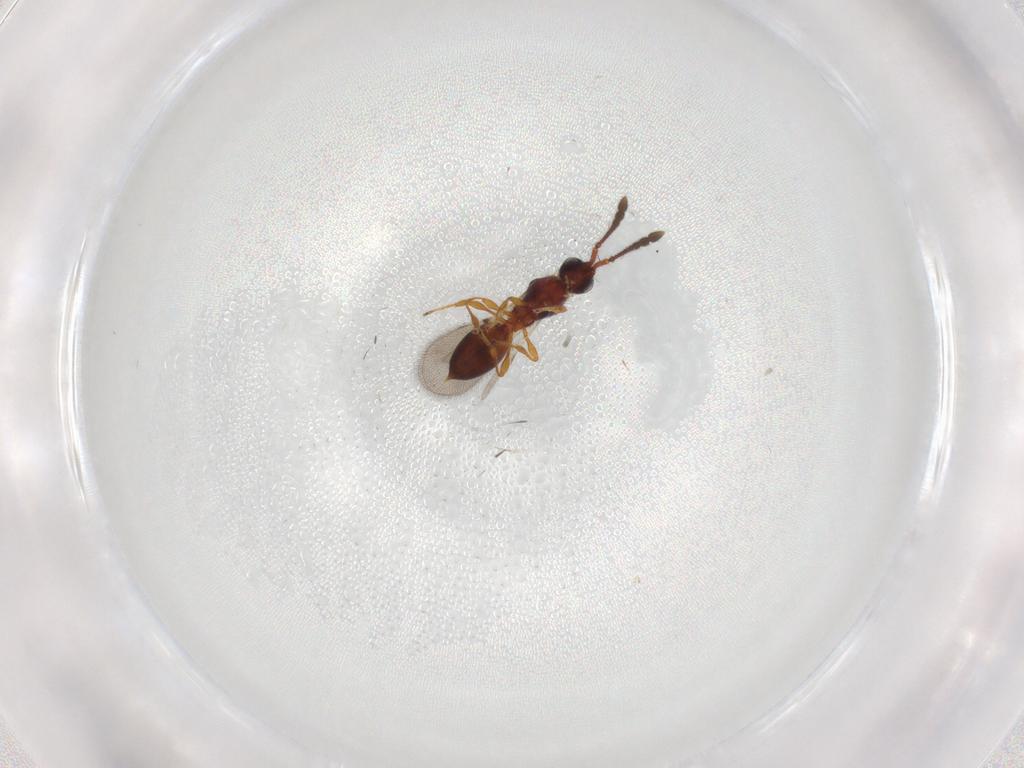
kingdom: Animalia
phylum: Arthropoda
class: Insecta
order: Hymenoptera
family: Diapriidae
